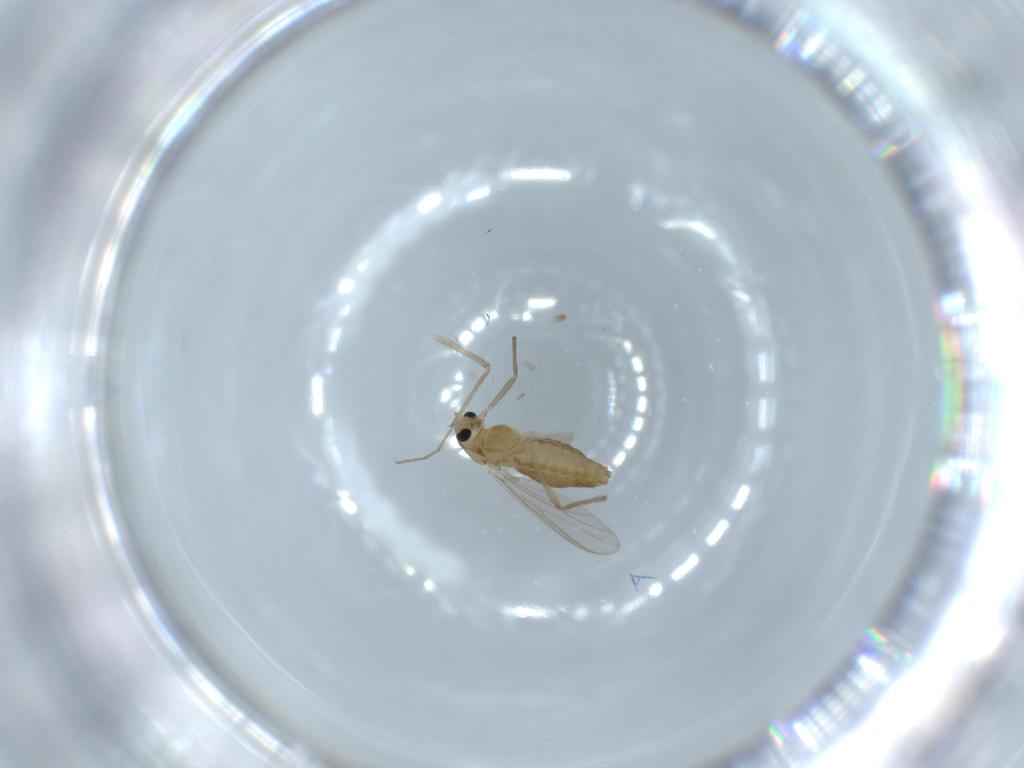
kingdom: Animalia
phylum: Arthropoda
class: Insecta
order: Diptera
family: Chironomidae
